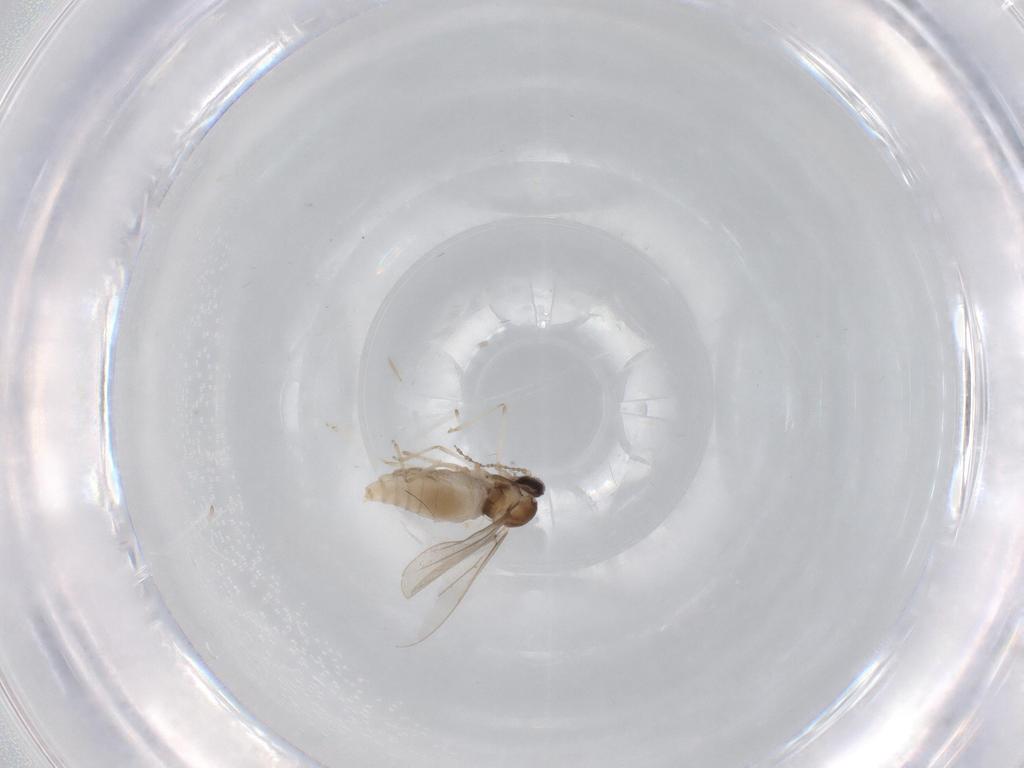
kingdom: Animalia
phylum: Arthropoda
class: Insecta
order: Diptera
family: Cecidomyiidae
